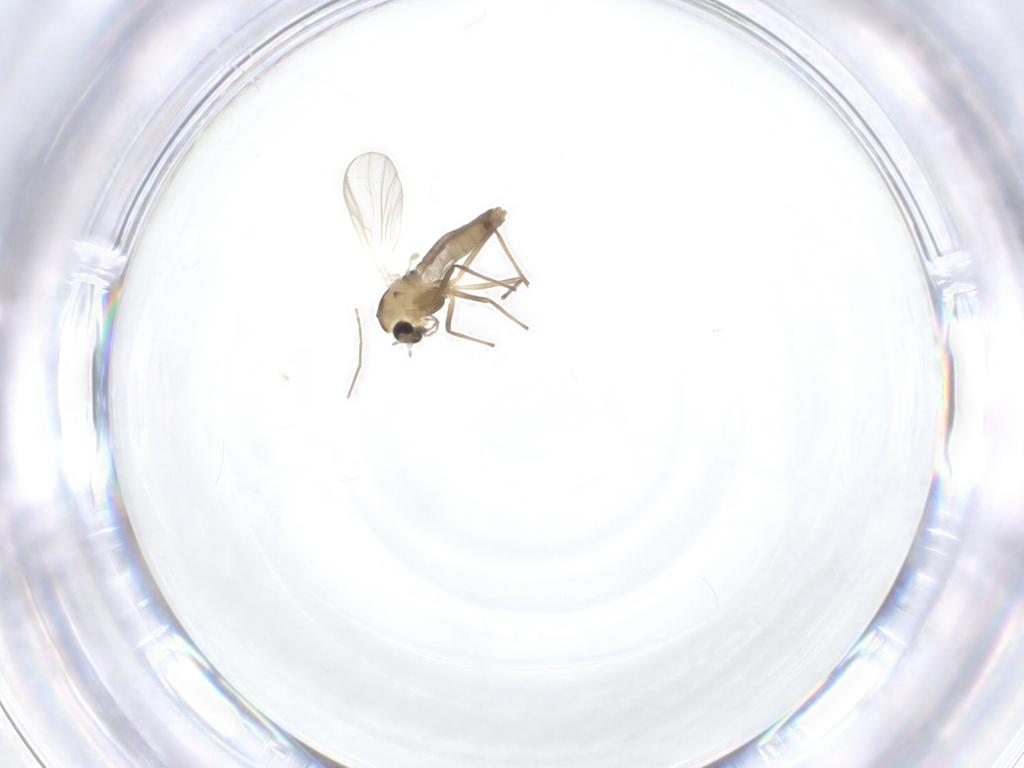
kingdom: Animalia
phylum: Arthropoda
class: Insecta
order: Diptera
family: Chironomidae
